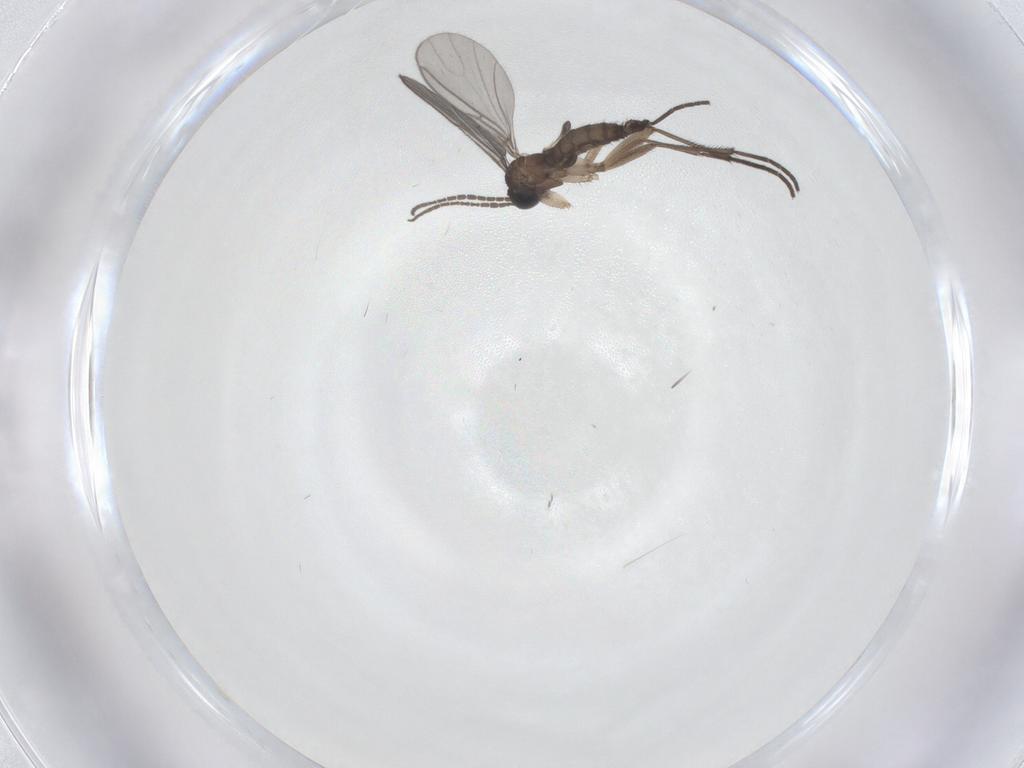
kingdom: Animalia
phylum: Arthropoda
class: Insecta
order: Diptera
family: Sciaridae
